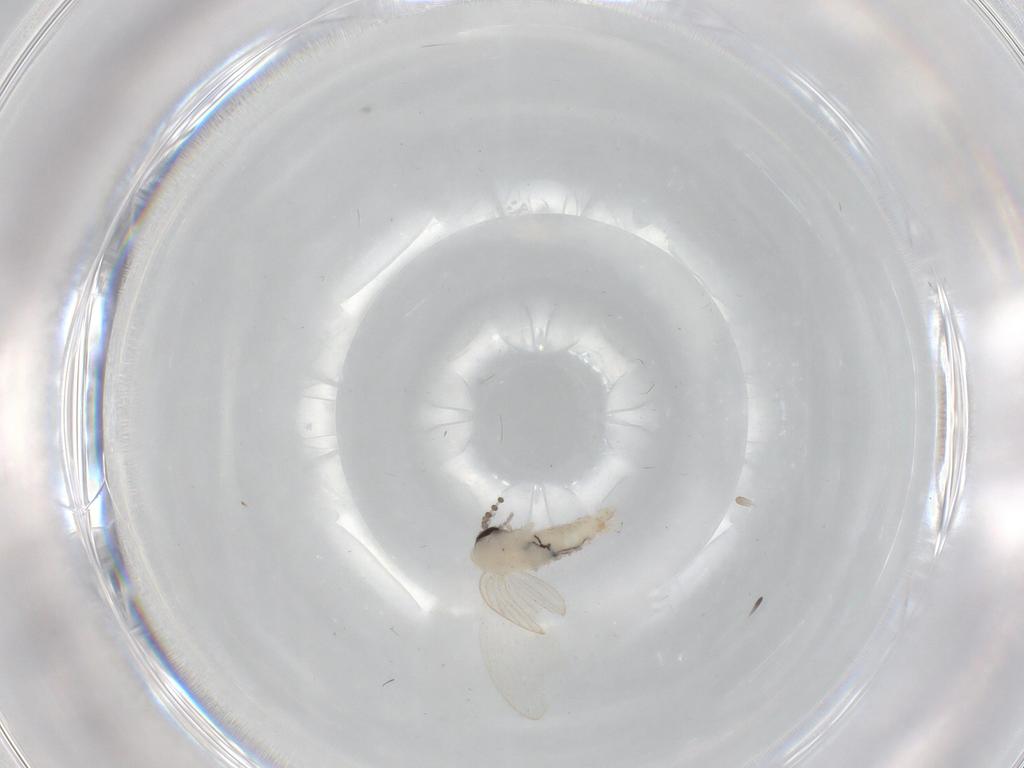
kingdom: Animalia
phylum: Arthropoda
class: Insecta
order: Diptera
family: Psychodidae
